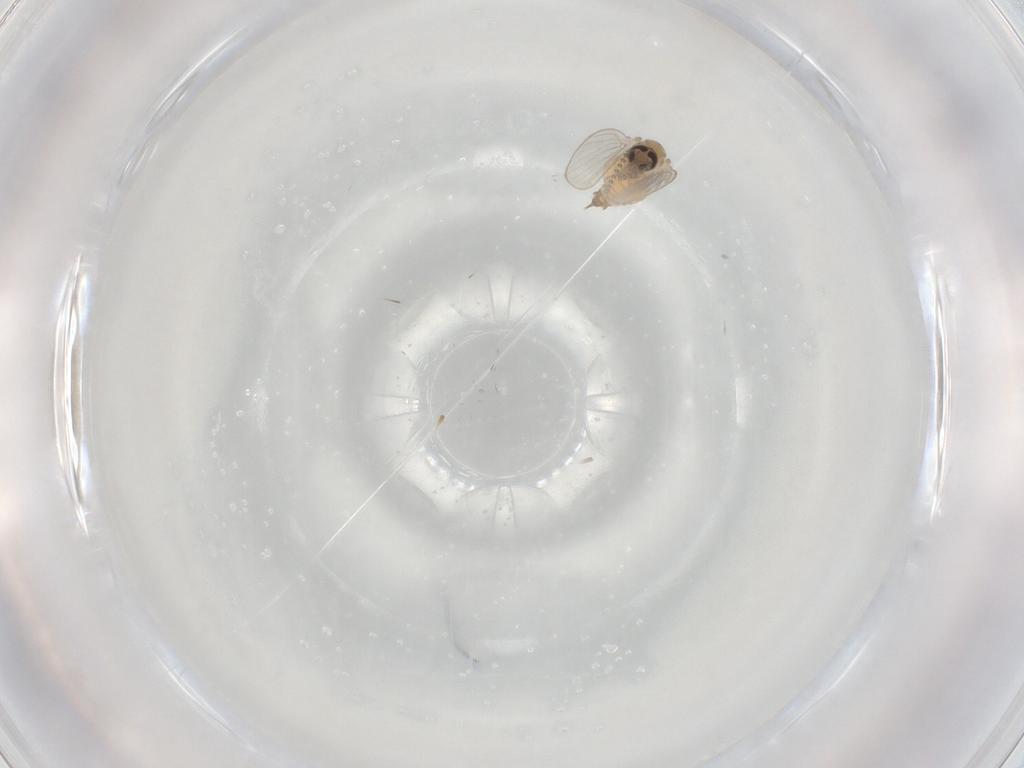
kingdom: Animalia
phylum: Arthropoda
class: Insecta
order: Diptera
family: Psychodidae
